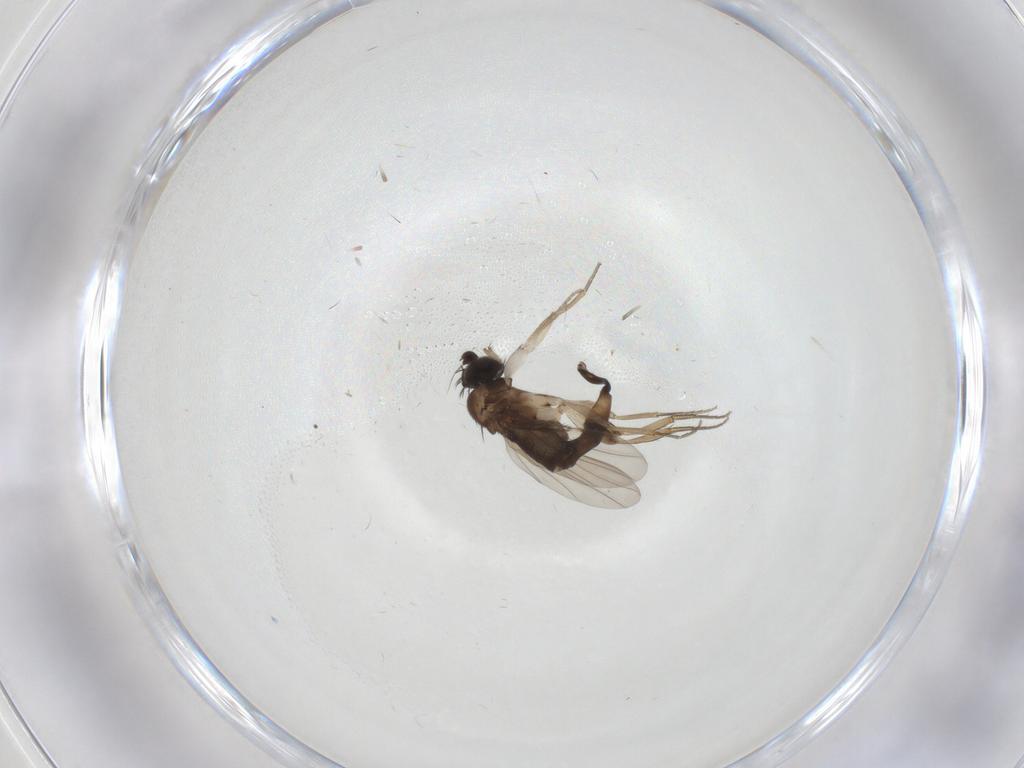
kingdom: Animalia
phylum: Arthropoda
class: Insecta
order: Diptera
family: Phoridae
